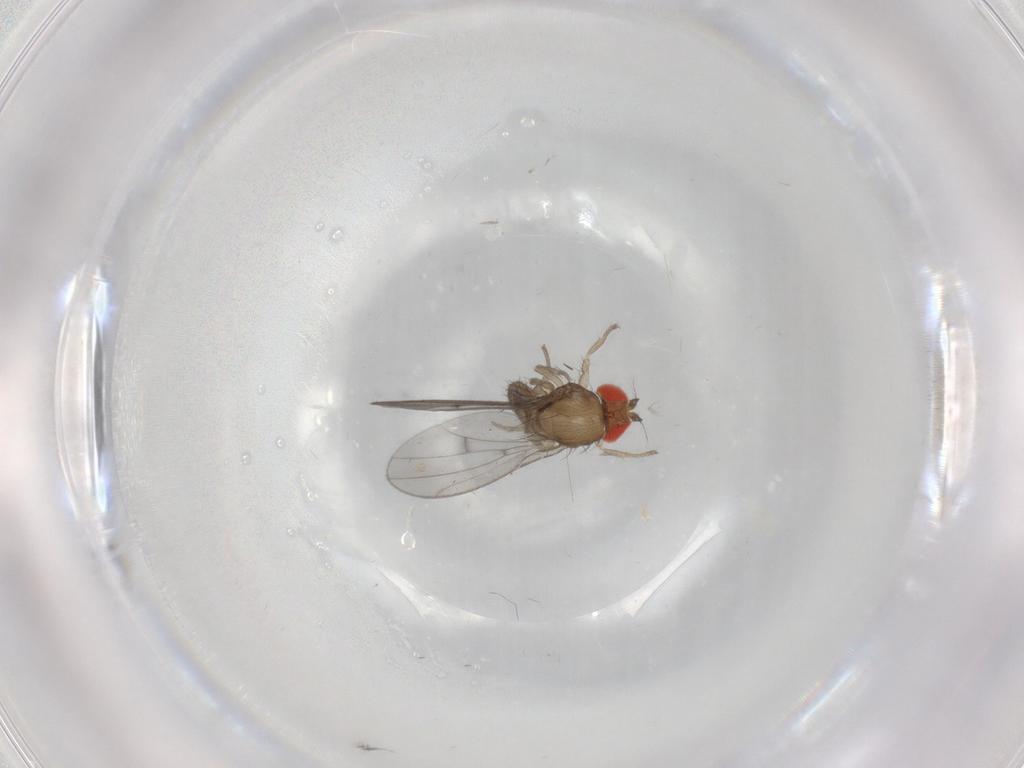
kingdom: Animalia
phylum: Arthropoda
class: Insecta
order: Diptera
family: Drosophilidae
